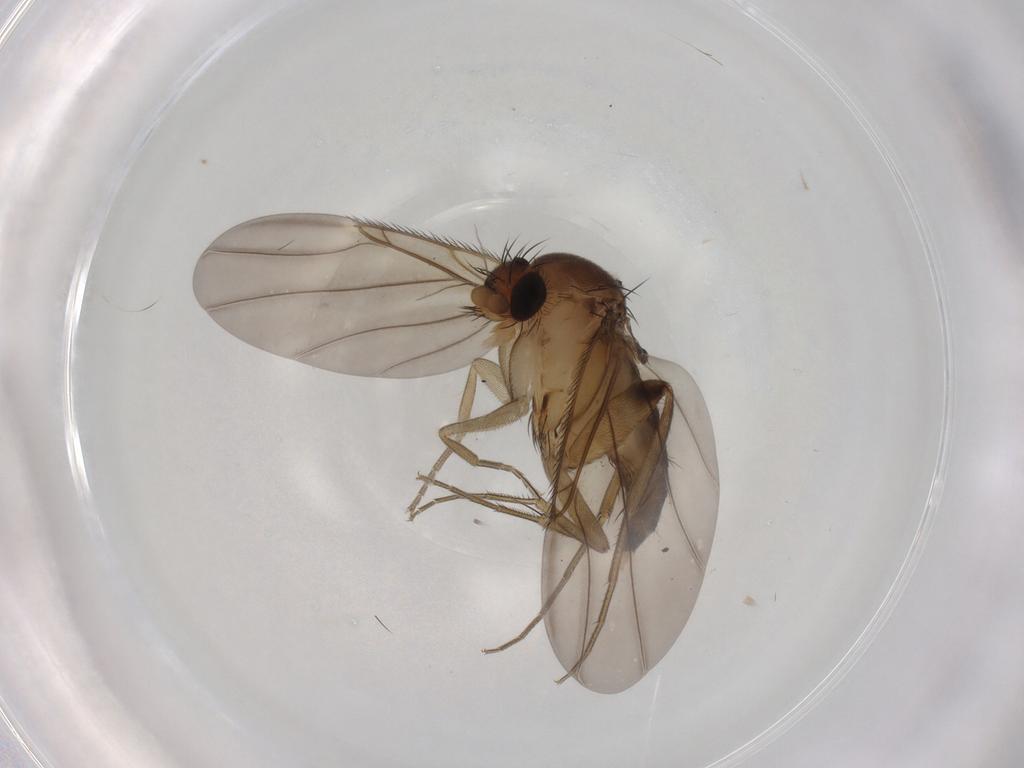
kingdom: Animalia
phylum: Arthropoda
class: Insecta
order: Diptera
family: Phoridae
